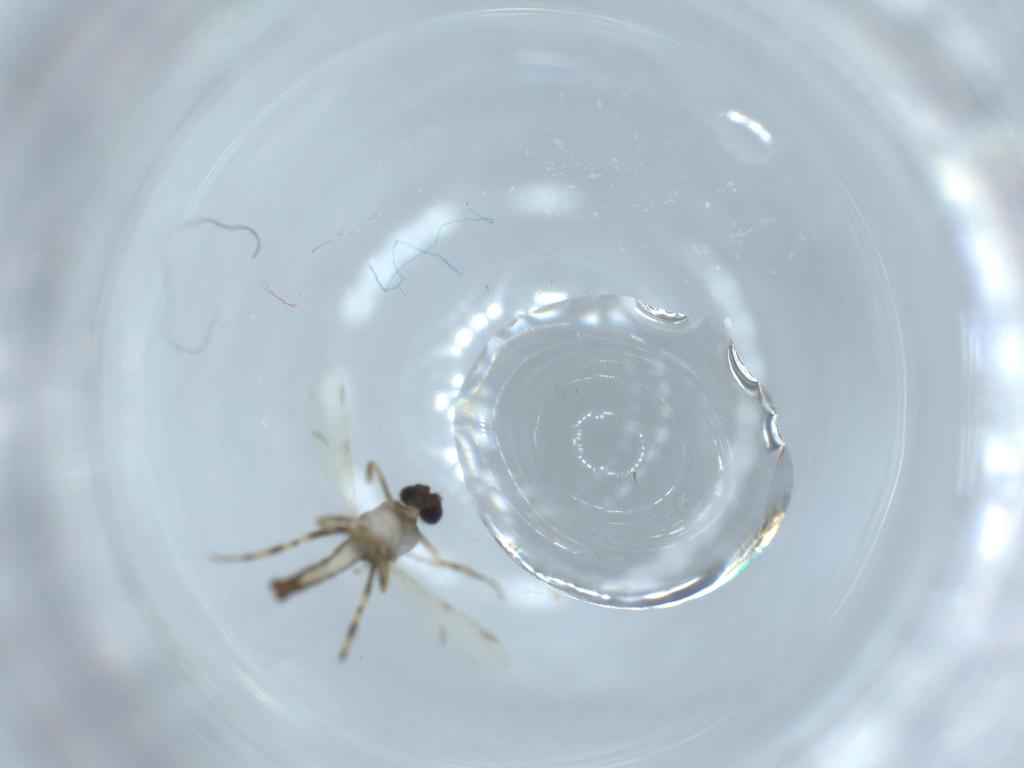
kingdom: Animalia
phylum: Arthropoda
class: Insecta
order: Diptera
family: Ceratopogonidae
